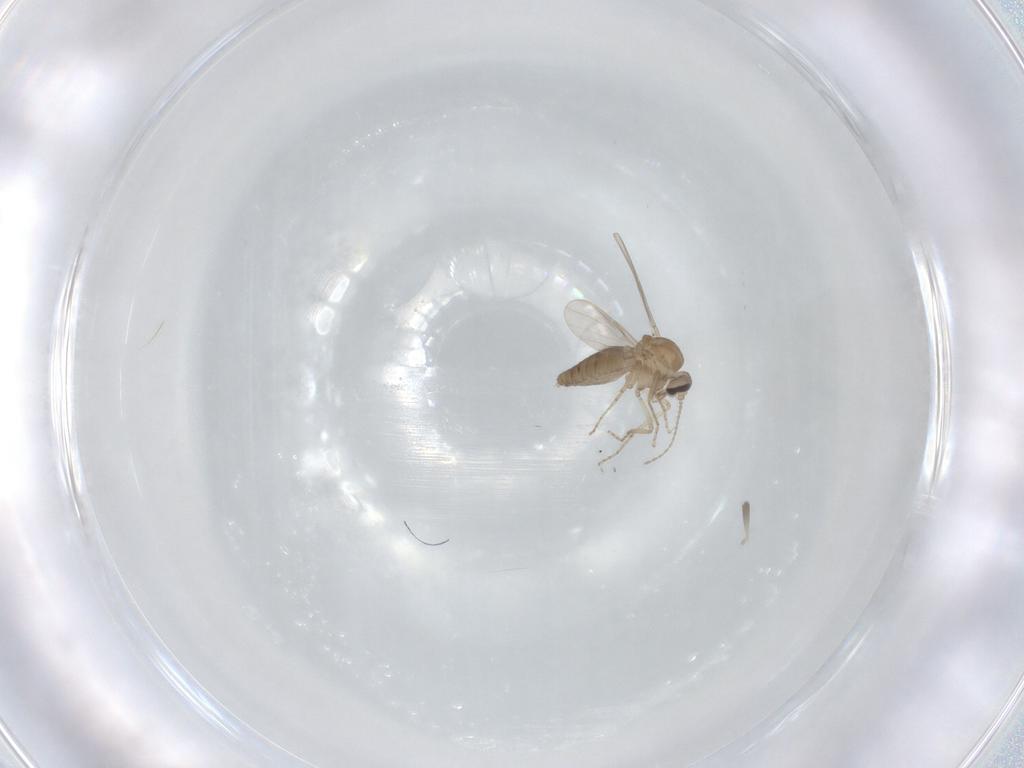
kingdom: Animalia
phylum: Arthropoda
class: Insecta
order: Diptera
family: Ceratopogonidae
